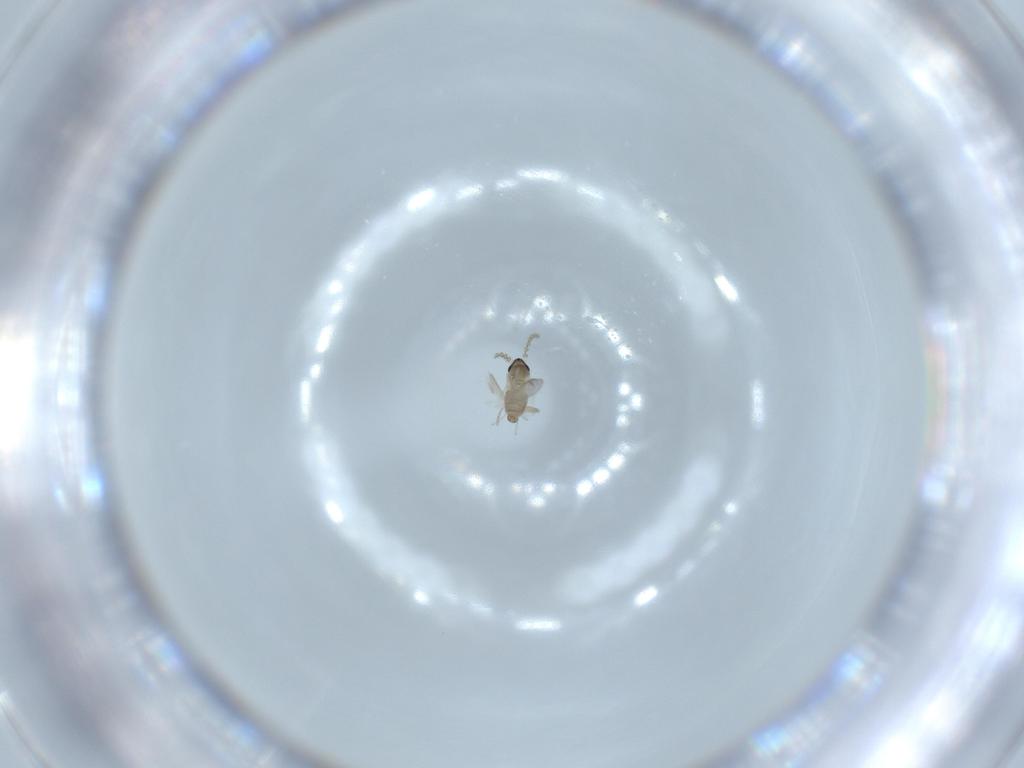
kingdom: Animalia
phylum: Arthropoda
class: Insecta
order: Diptera
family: Cecidomyiidae
